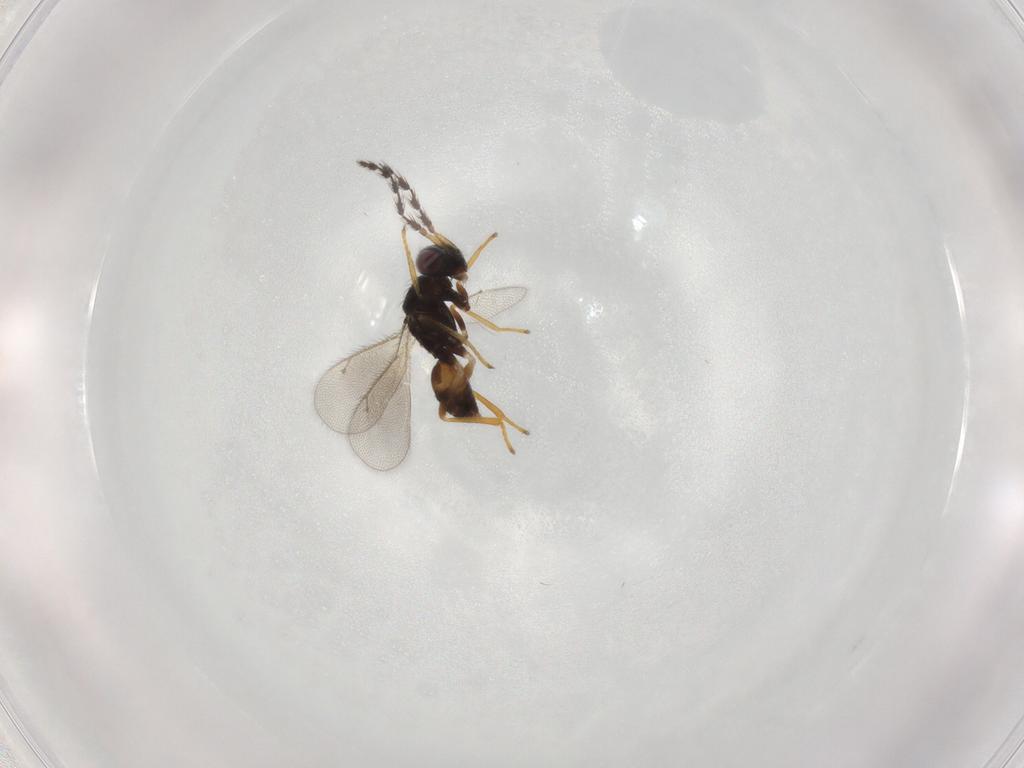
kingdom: Animalia
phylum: Arthropoda
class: Insecta
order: Hymenoptera
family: Eulophidae
